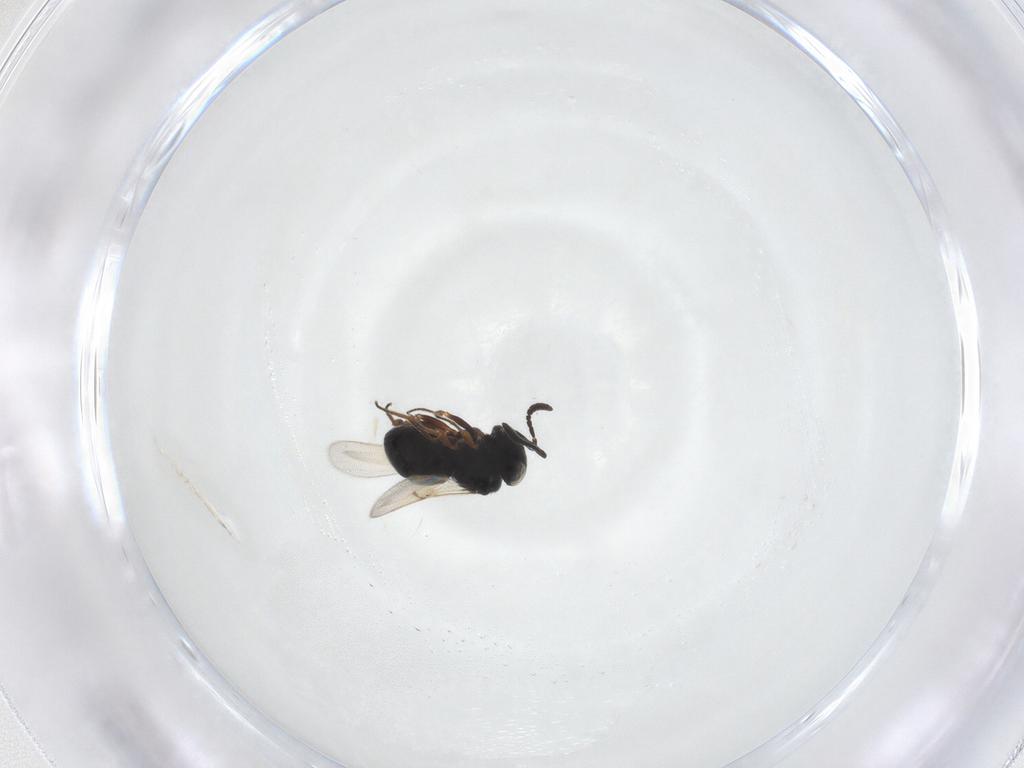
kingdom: Animalia
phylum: Arthropoda
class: Insecta
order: Hymenoptera
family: Scelionidae
